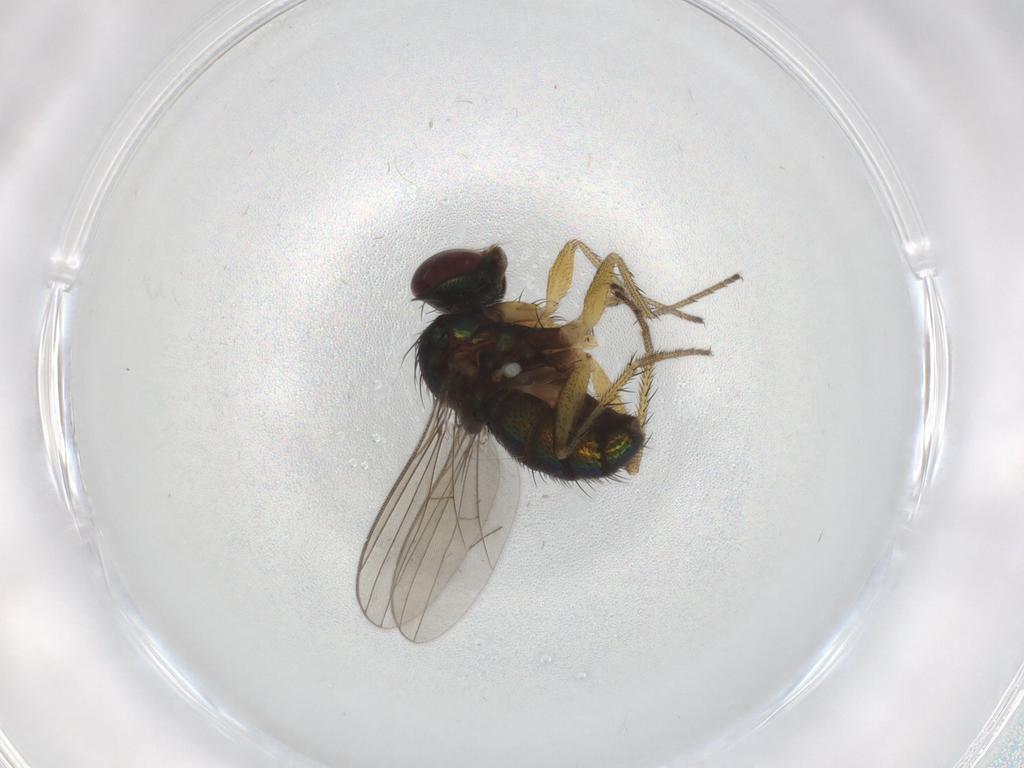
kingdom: Animalia
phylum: Arthropoda
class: Insecta
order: Diptera
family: Dolichopodidae
